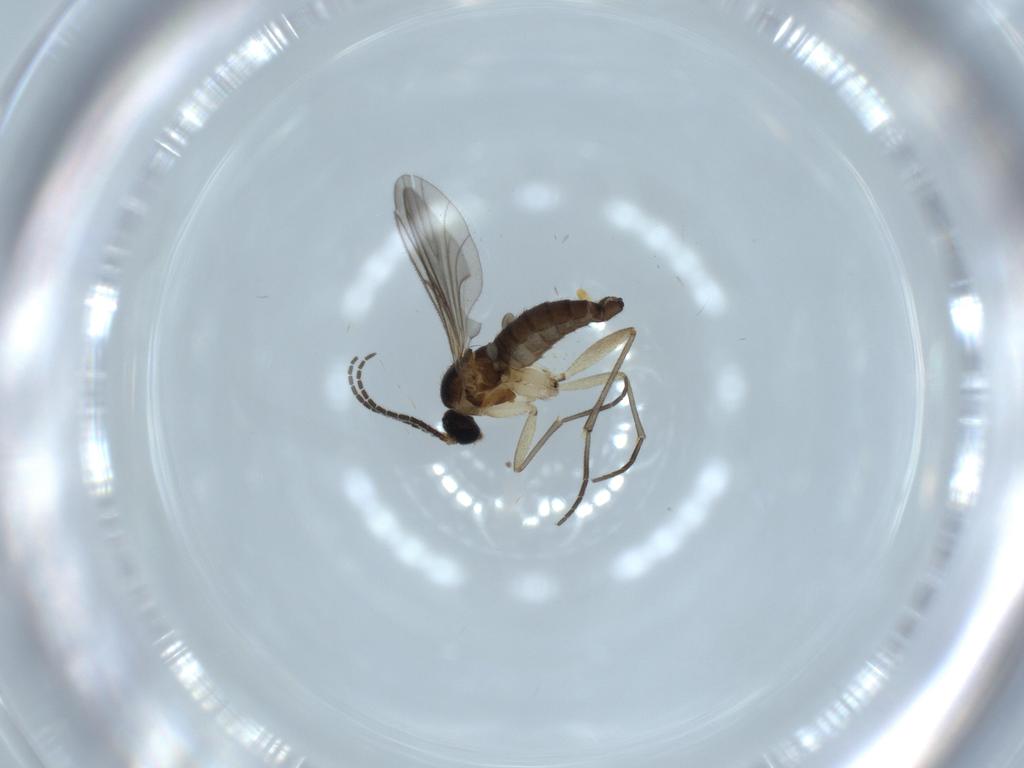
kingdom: Animalia
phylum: Arthropoda
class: Insecta
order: Diptera
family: Sciaridae
